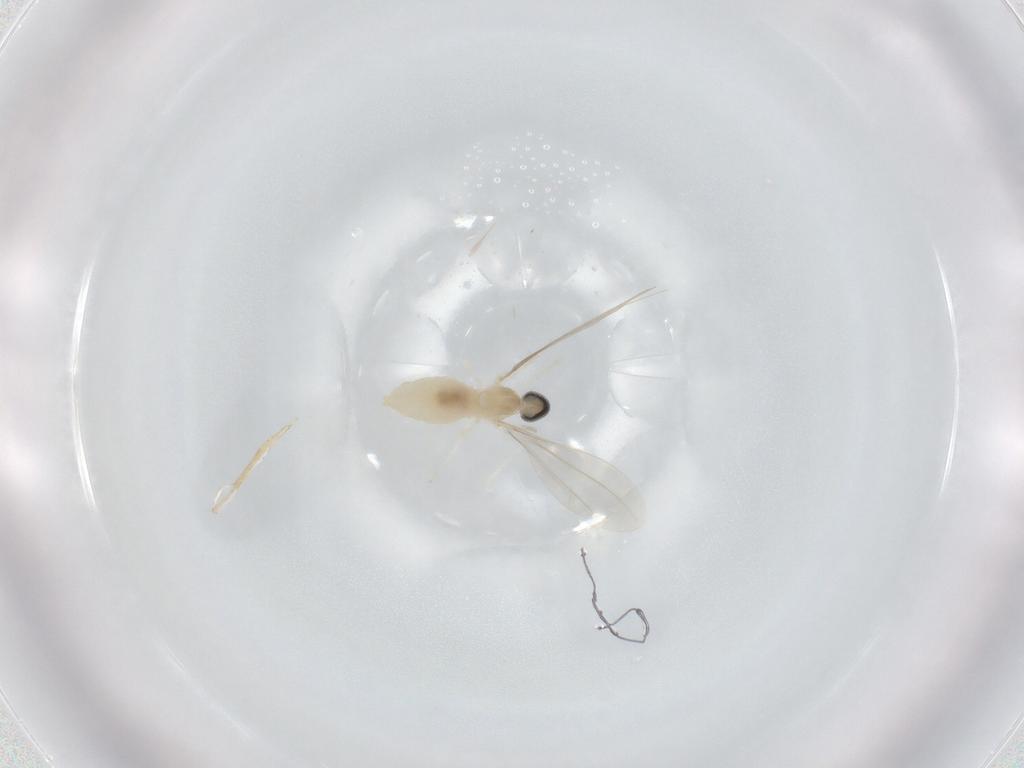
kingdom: Animalia
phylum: Arthropoda
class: Insecta
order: Diptera
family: Cecidomyiidae
